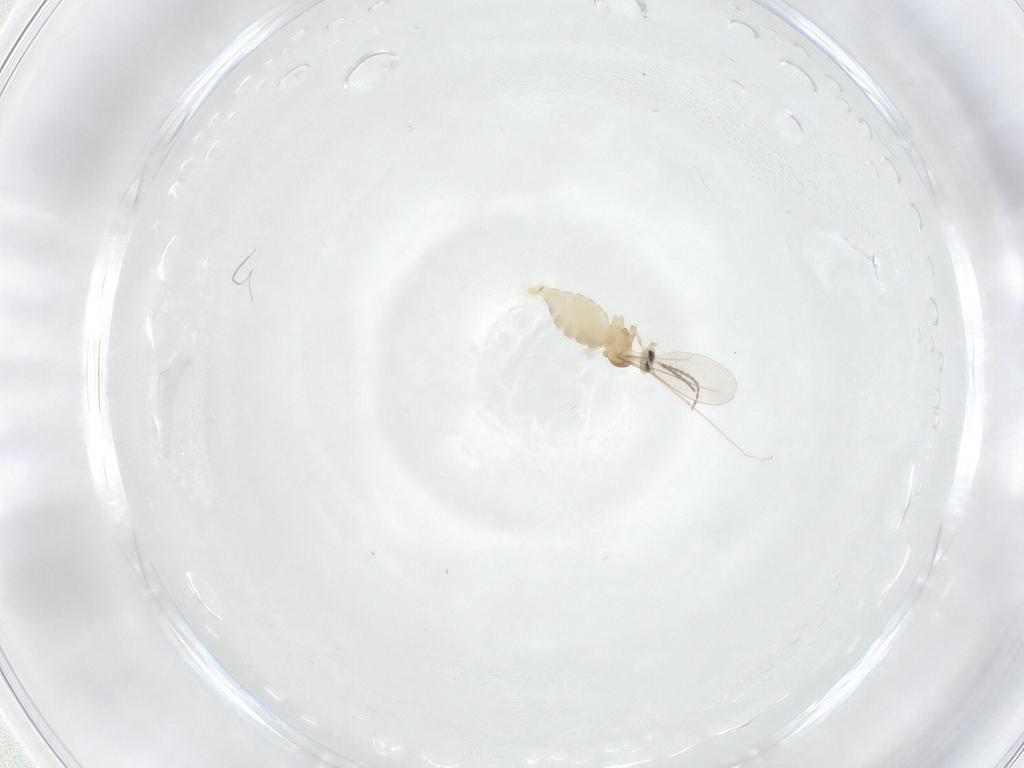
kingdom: Animalia
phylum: Arthropoda
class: Insecta
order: Diptera
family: Cecidomyiidae
